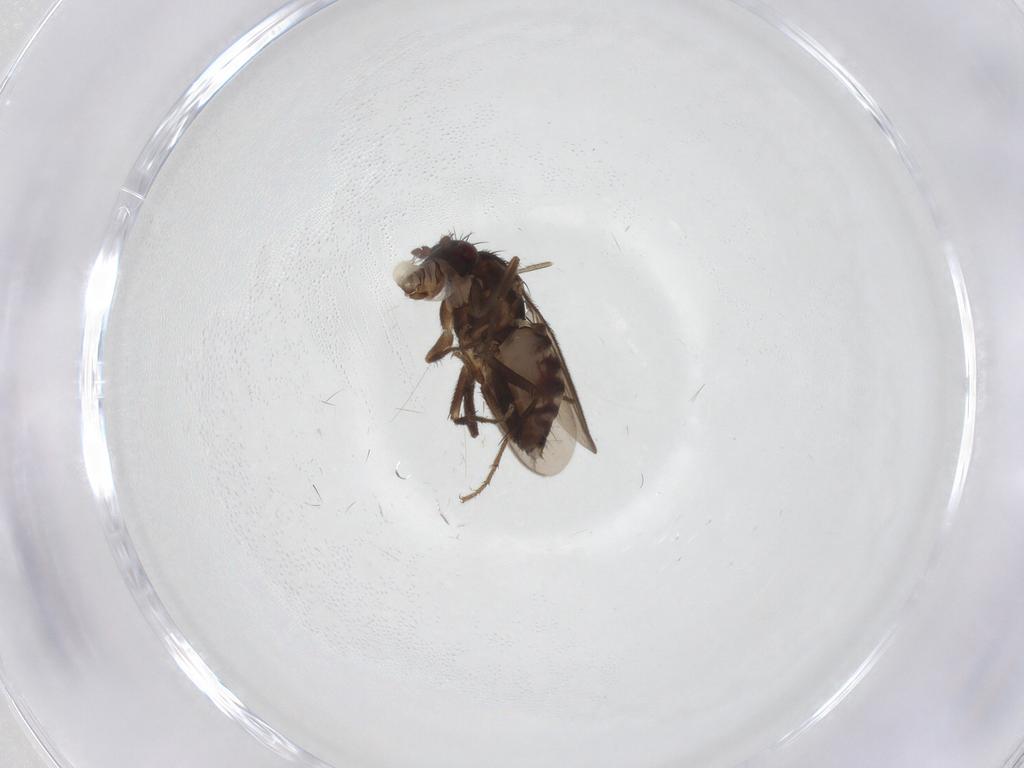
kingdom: Animalia
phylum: Arthropoda
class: Insecta
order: Diptera
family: Sphaeroceridae
